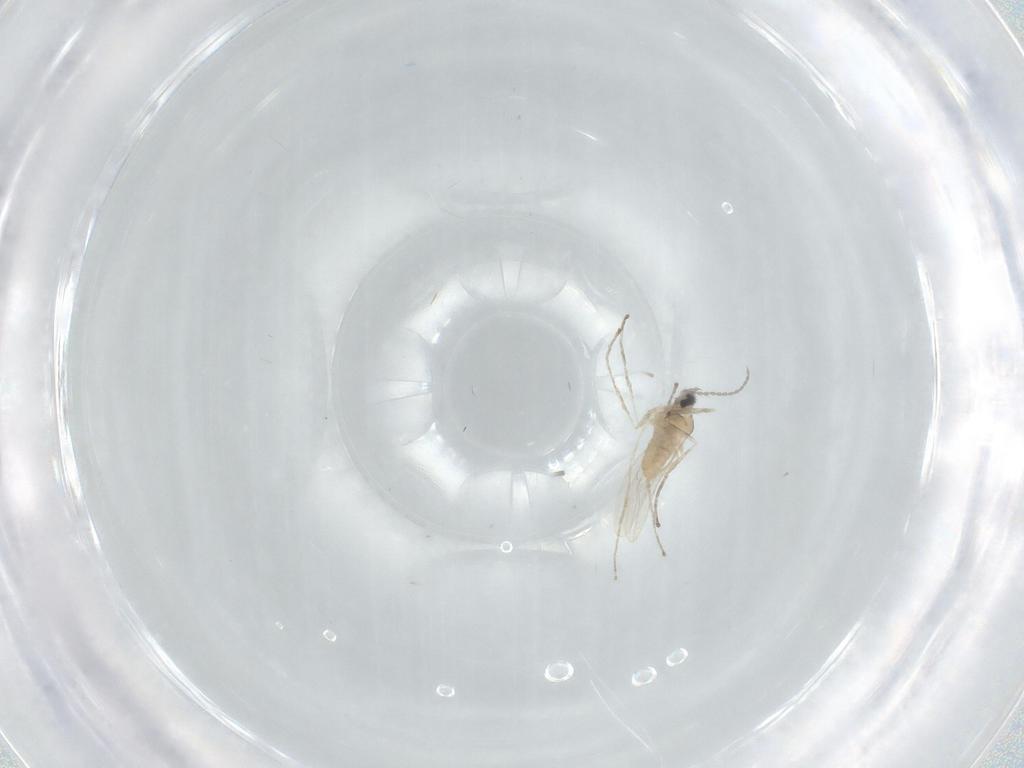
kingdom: Animalia
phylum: Arthropoda
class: Insecta
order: Diptera
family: Cecidomyiidae
